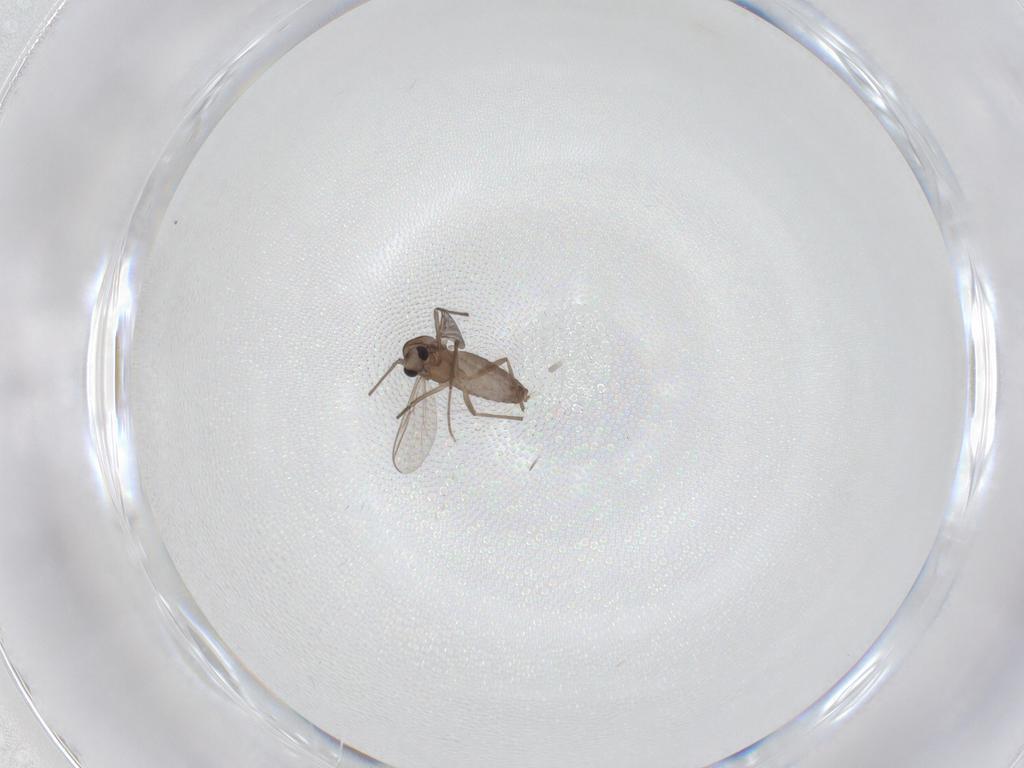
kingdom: Animalia
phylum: Arthropoda
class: Insecta
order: Diptera
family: Chironomidae
